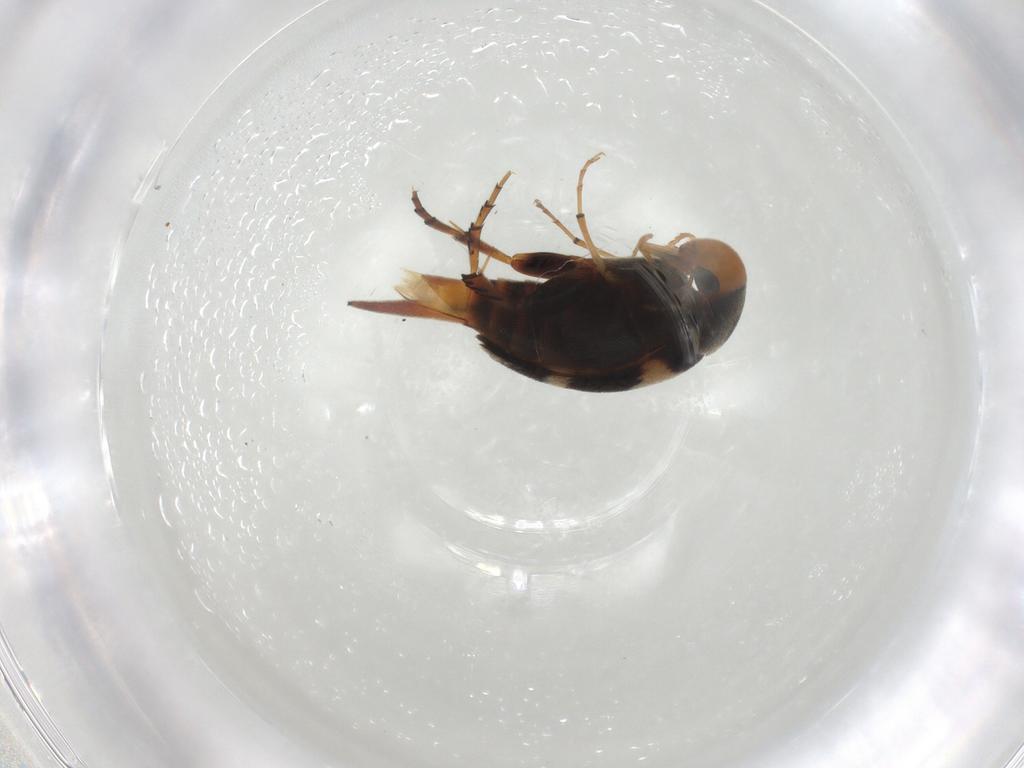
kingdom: Animalia
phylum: Arthropoda
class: Insecta
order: Coleoptera
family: Mordellidae
